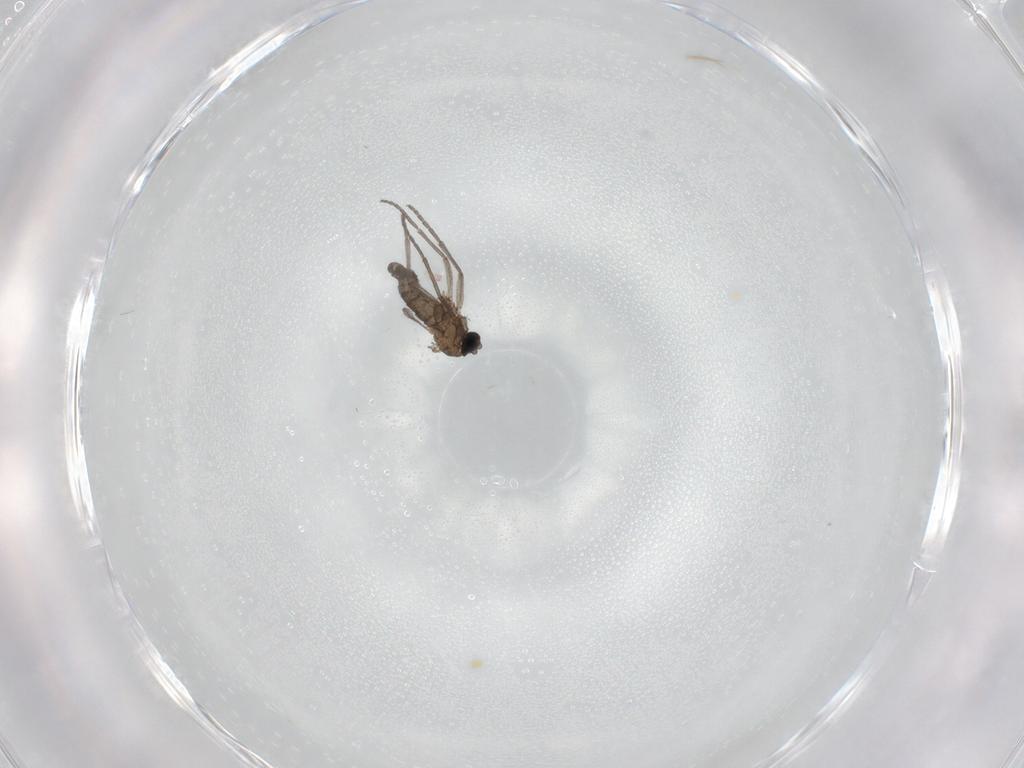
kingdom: Animalia
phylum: Arthropoda
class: Insecta
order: Diptera
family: Sciaridae
